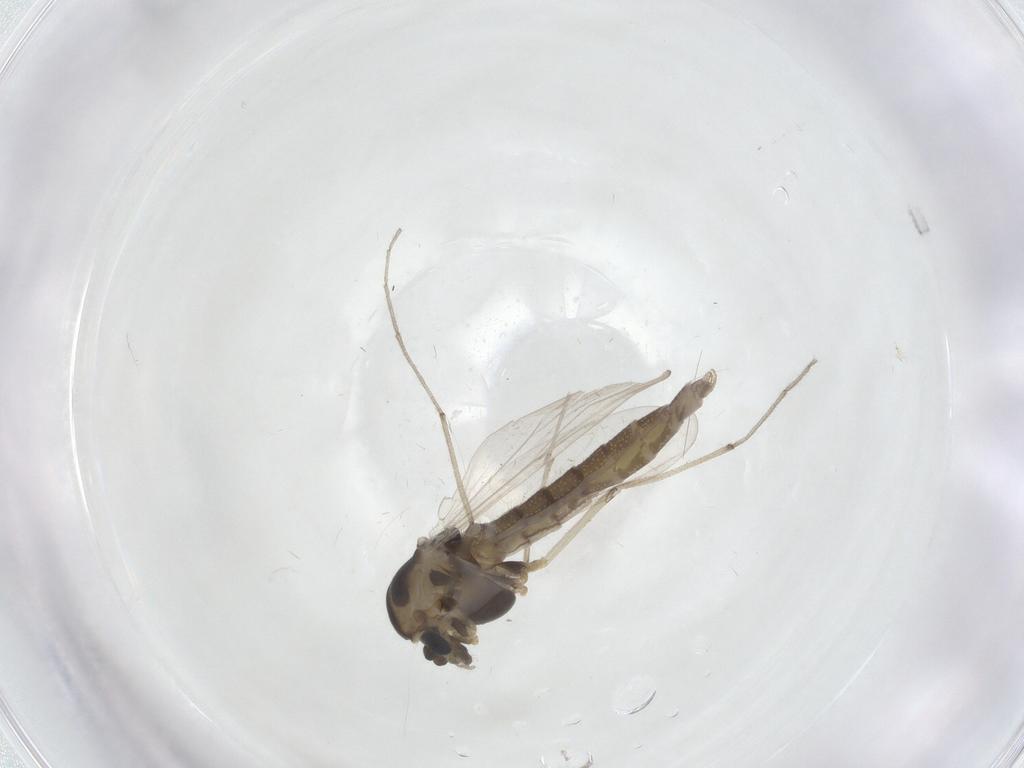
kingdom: Animalia
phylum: Arthropoda
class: Insecta
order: Diptera
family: Chironomidae
